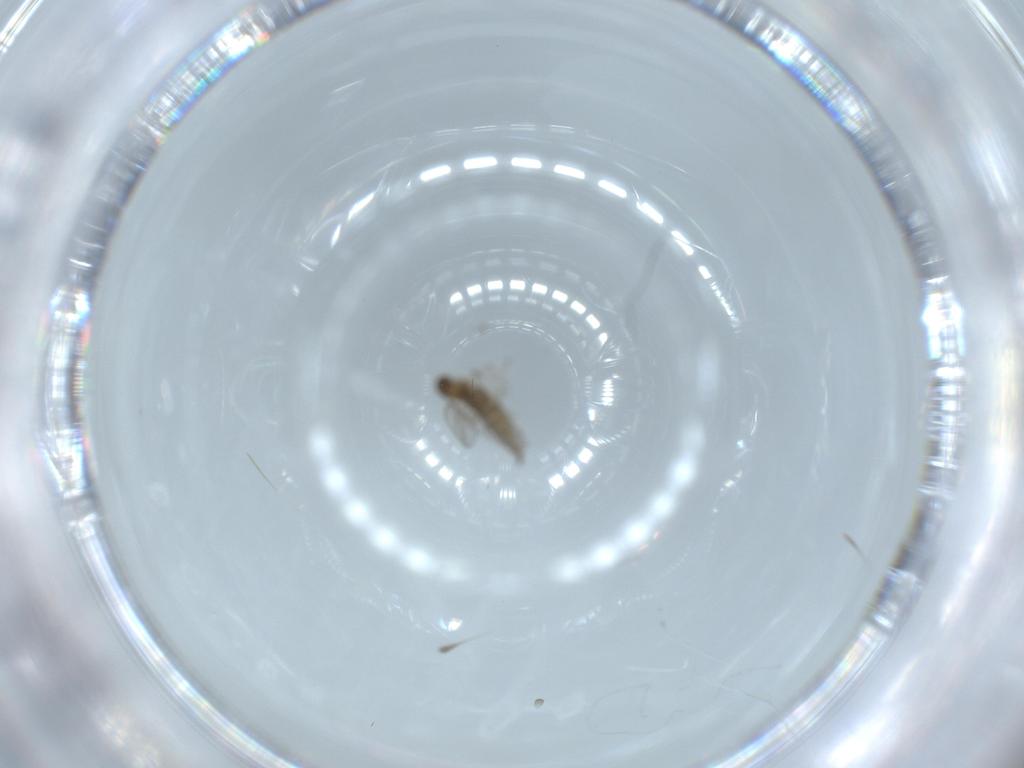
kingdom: Animalia
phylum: Arthropoda
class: Insecta
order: Diptera
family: Cecidomyiidae
